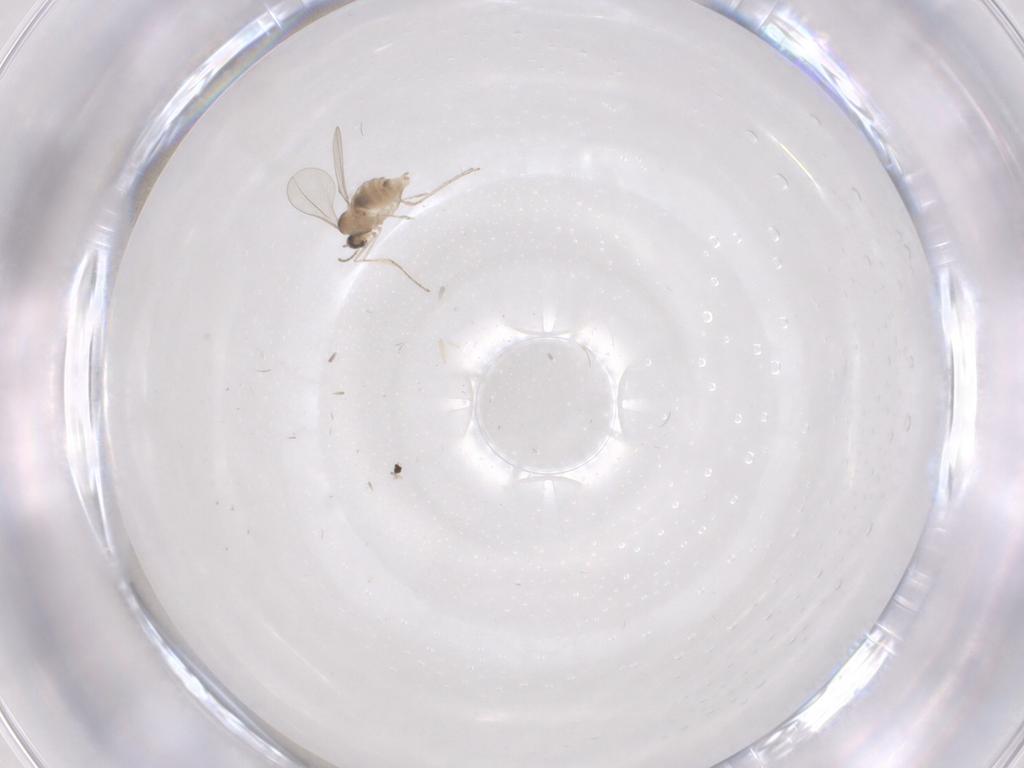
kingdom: Animalia
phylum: Arthropoda
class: Insecta
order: Diptera
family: Cecidomyiidae
